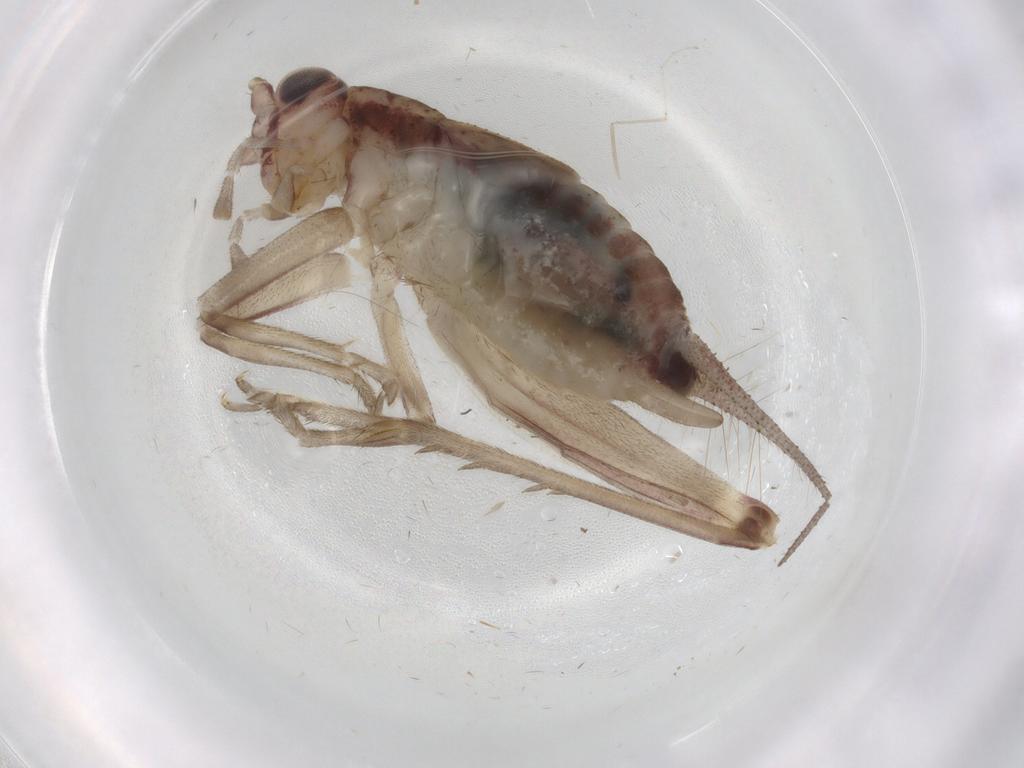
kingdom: Animalia
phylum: Arthropoda
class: Insecta
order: Orthoptera
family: Trigonidiidae
